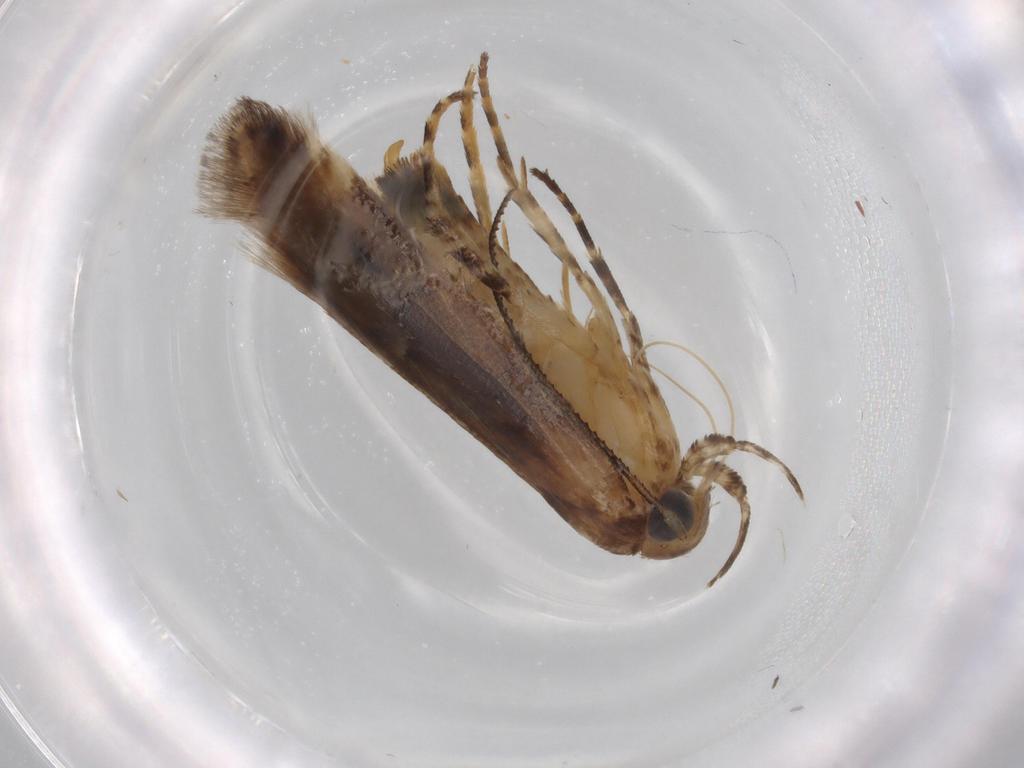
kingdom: Animalia
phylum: Arthropoda
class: Insecta
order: Lepidoptera
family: Gelechiidae
